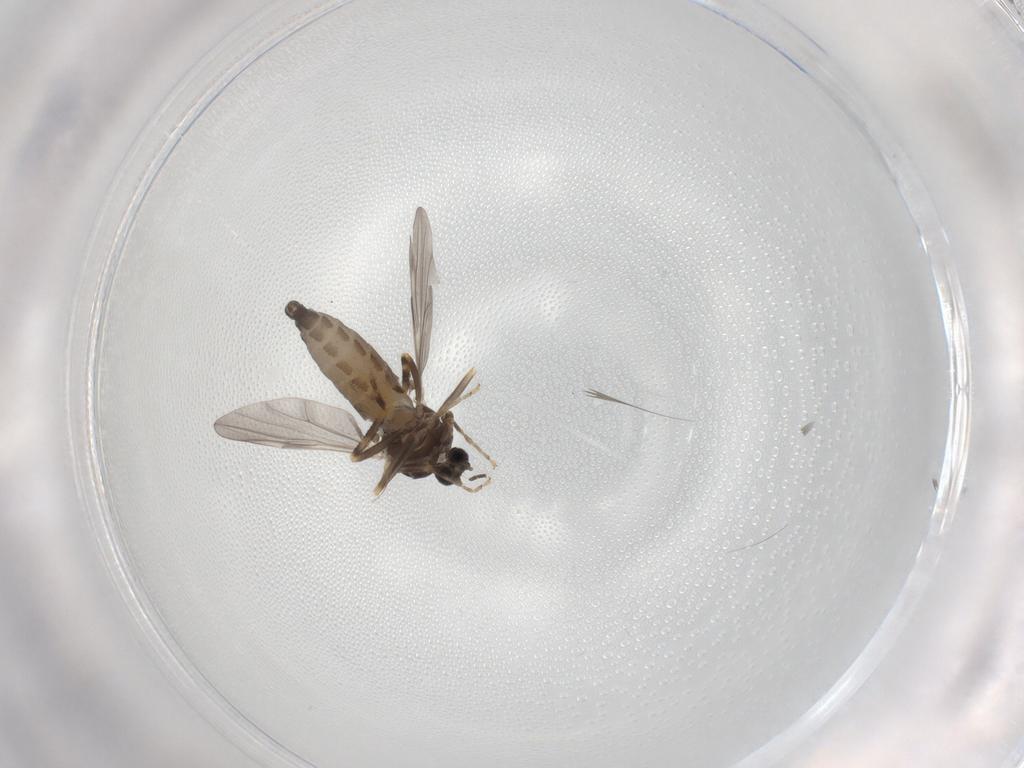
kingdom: Animalia
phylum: Arthropoda
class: Insecta
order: Diptera
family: Ceratopogonidae
